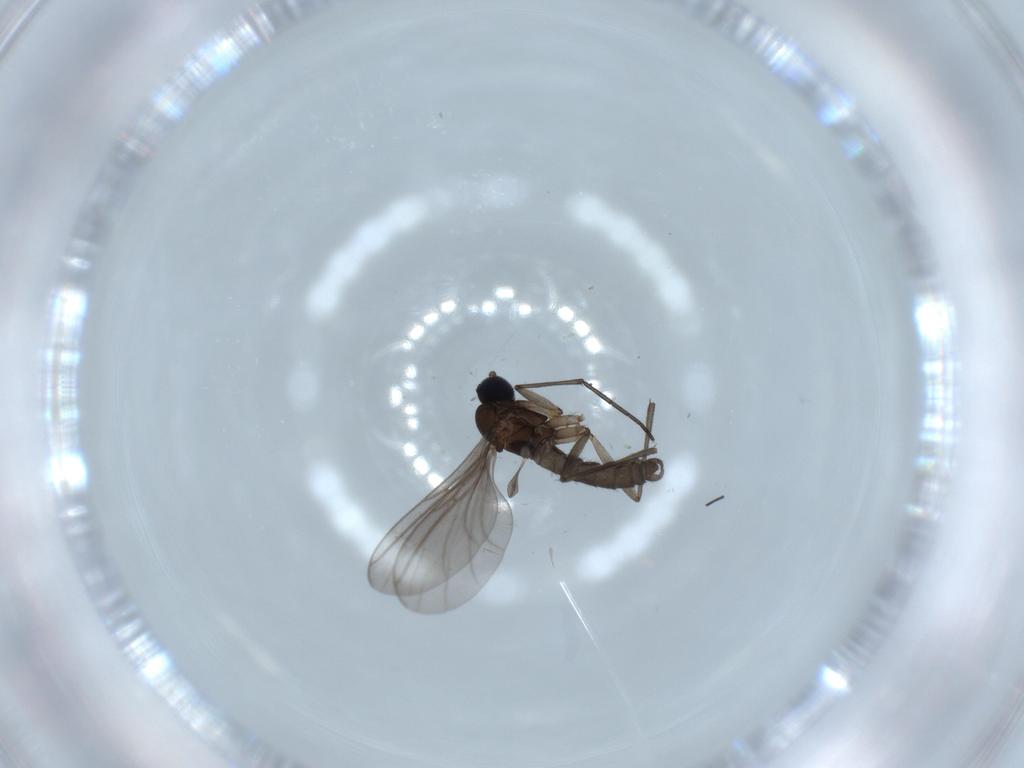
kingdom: Animalia
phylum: Arthropoda
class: Insecta
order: Diptera
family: Sciaridae
